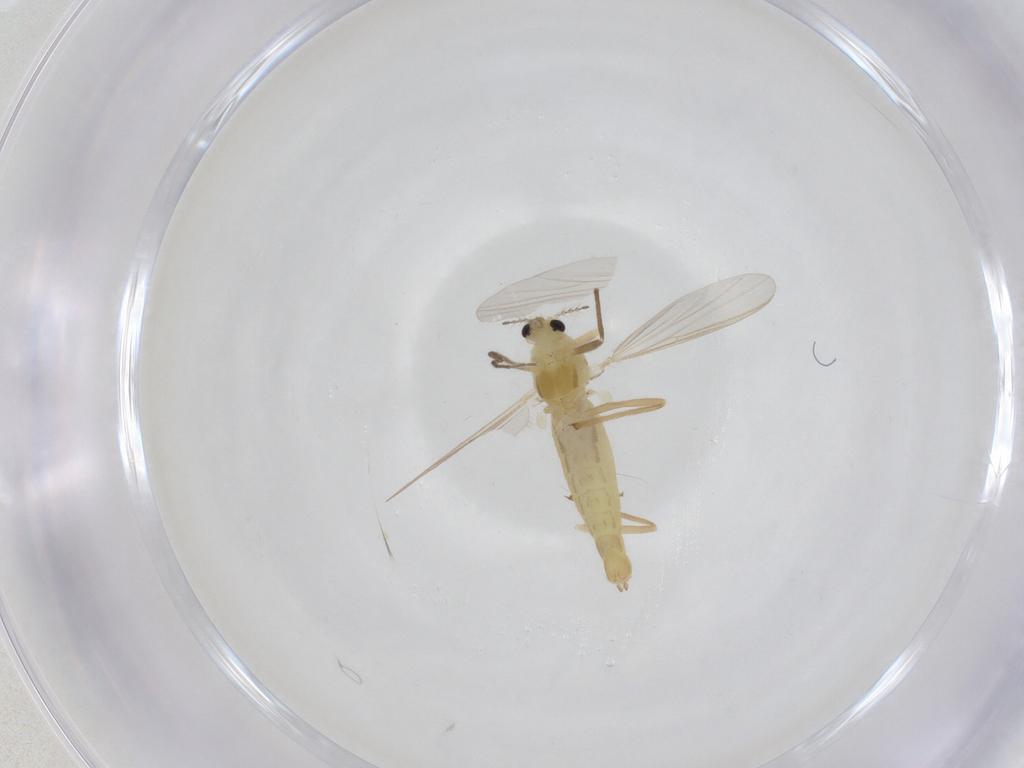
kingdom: Animalia
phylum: Arthropoda
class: Insecta
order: Diptera
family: Chironomidae
